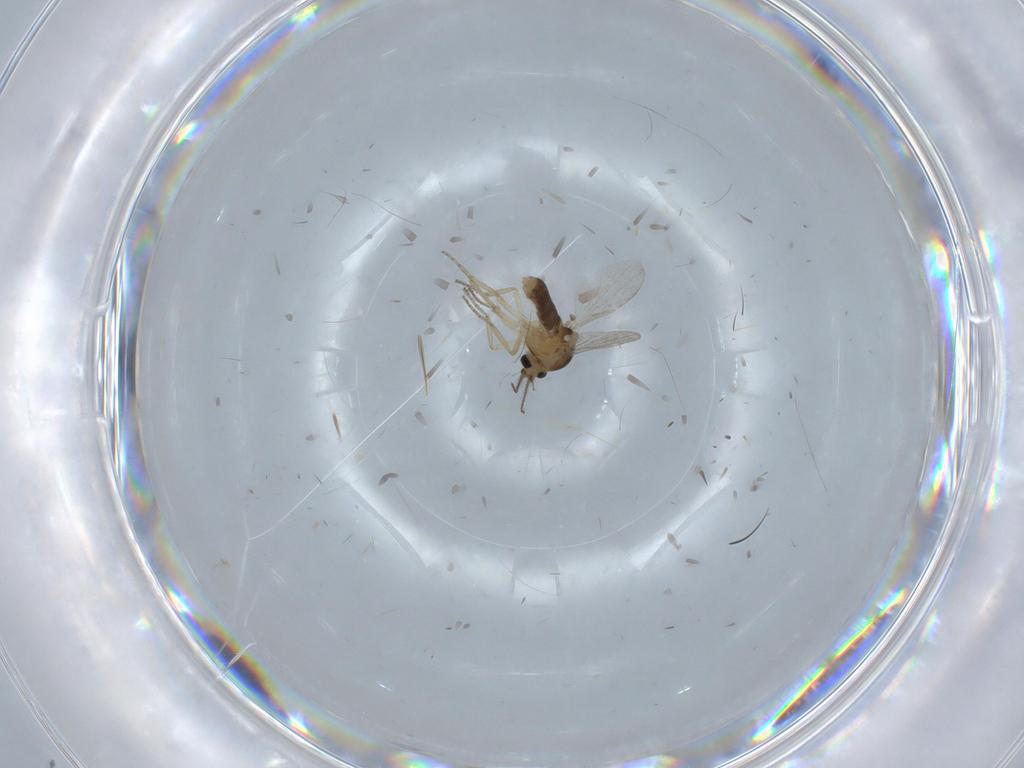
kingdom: Animalia
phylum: Arthropoda
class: Insecta
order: Diptera
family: Ceratopogonidae
